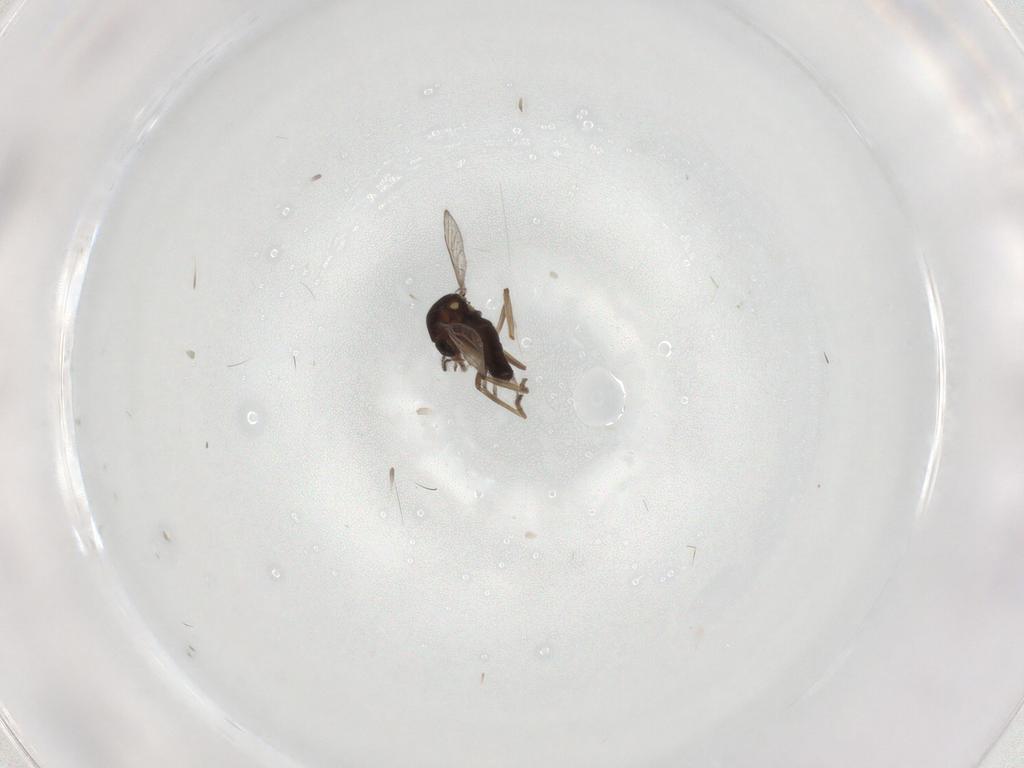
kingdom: Animalia
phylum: Arthropoda
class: Insecta
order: Diptera
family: Ceratopogonidae
